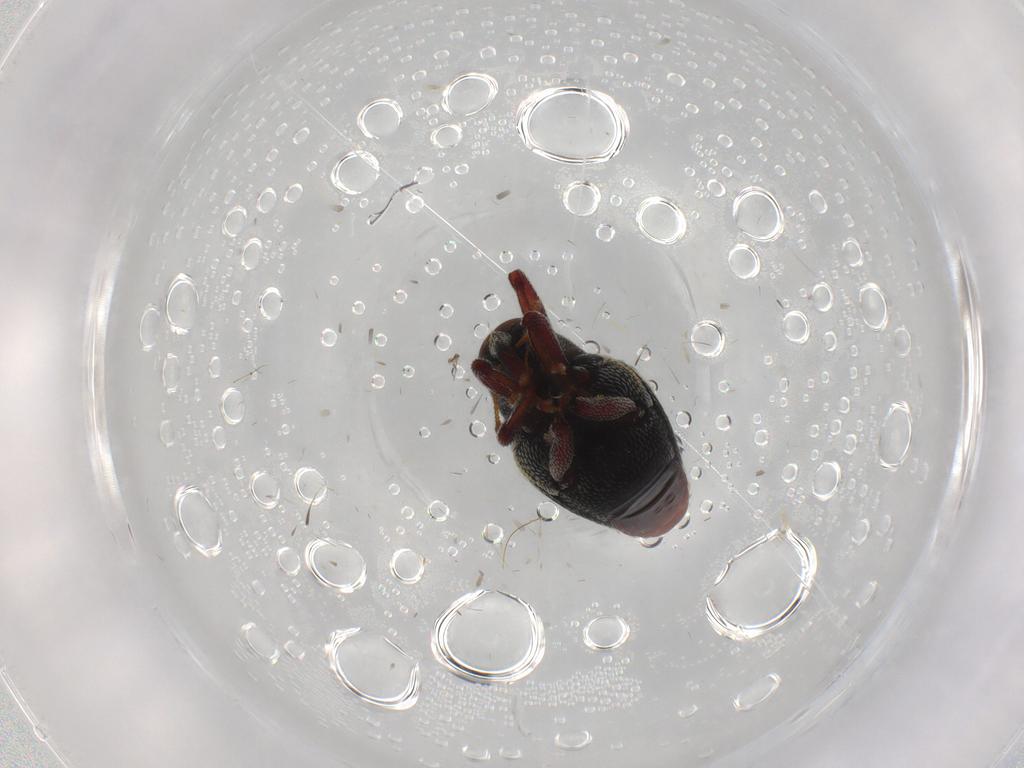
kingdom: Animalia
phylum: Arthropoda
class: Insecta
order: Coleoptera
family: Curculionidae
